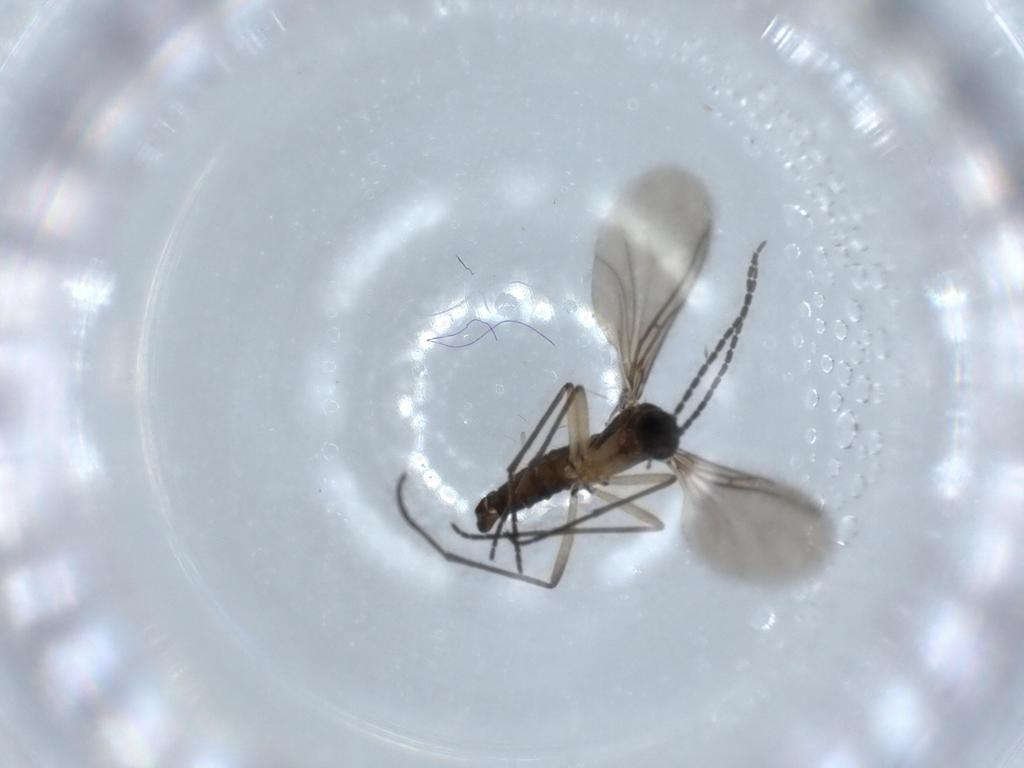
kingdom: Animalia
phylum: Arthropoda
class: Insecta
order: Diptera
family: Sciaridae
